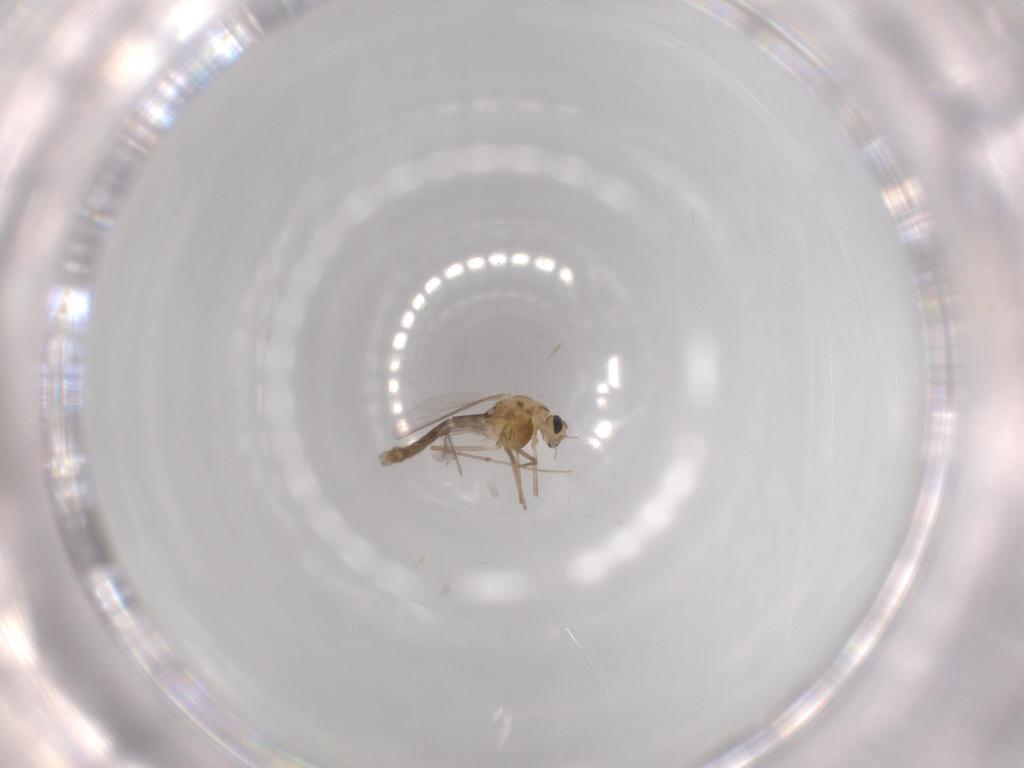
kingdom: Animalia
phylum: Arthropoda
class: Insecta
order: Diptera
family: Chironomidae
